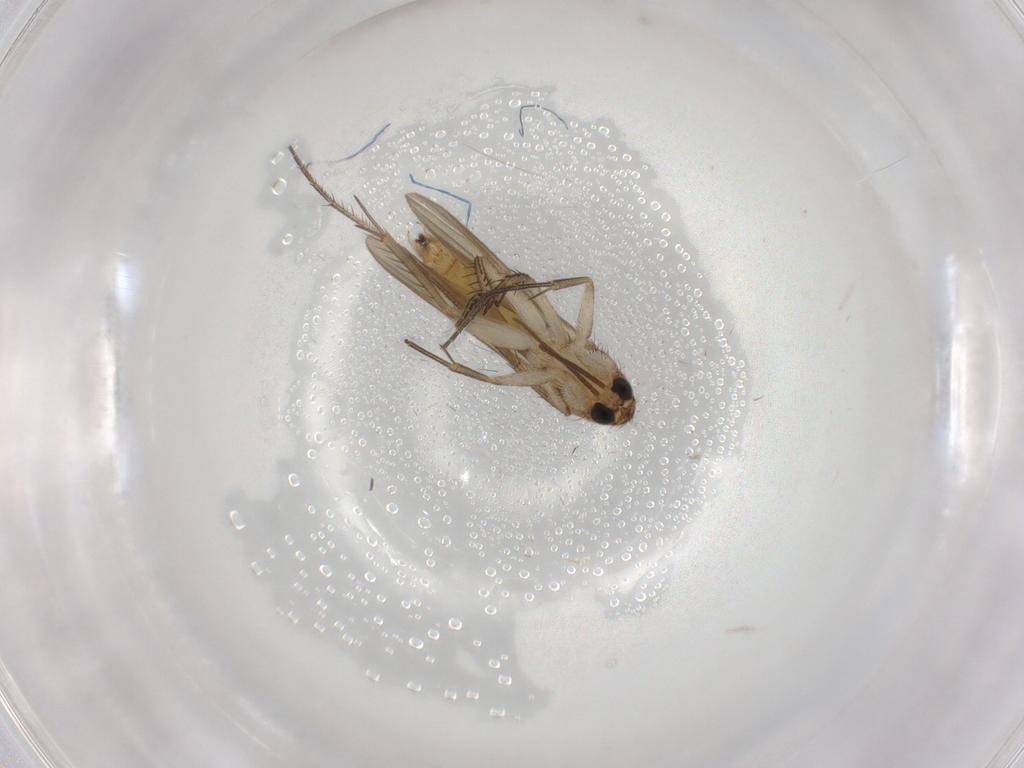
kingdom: Animalia
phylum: Arthropoda
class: Insecta
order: Diptera
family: Mycetophilidae
